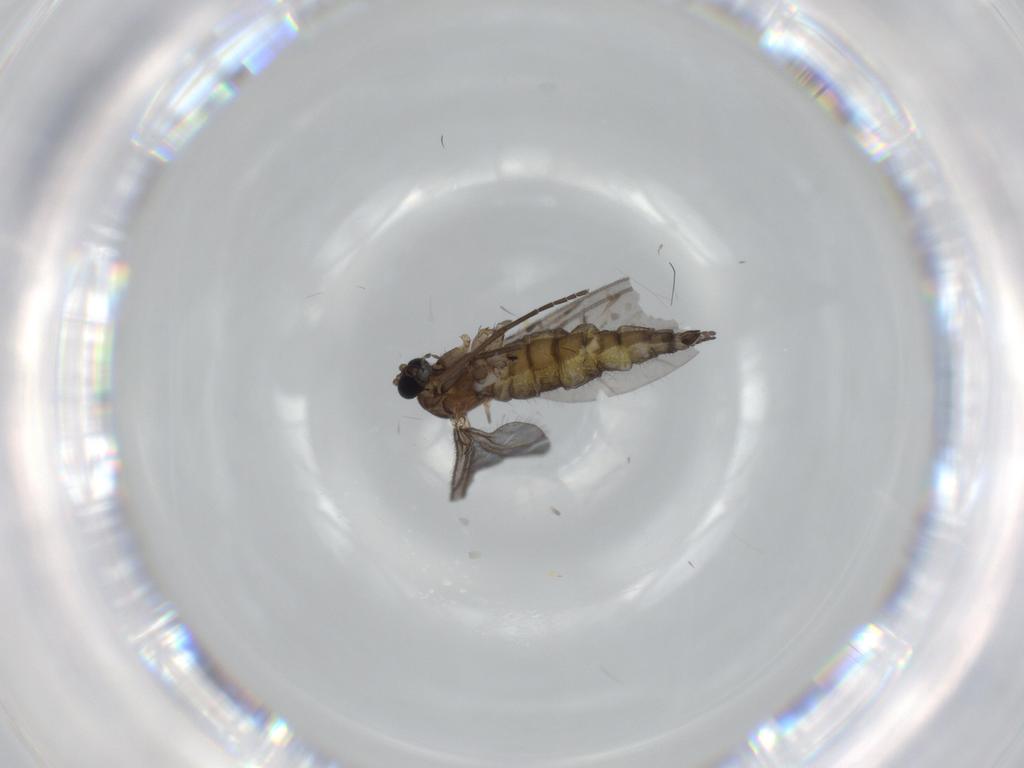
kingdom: Animalia
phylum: Arthropoda
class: Insecta
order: Diptera
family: Sciaridae
